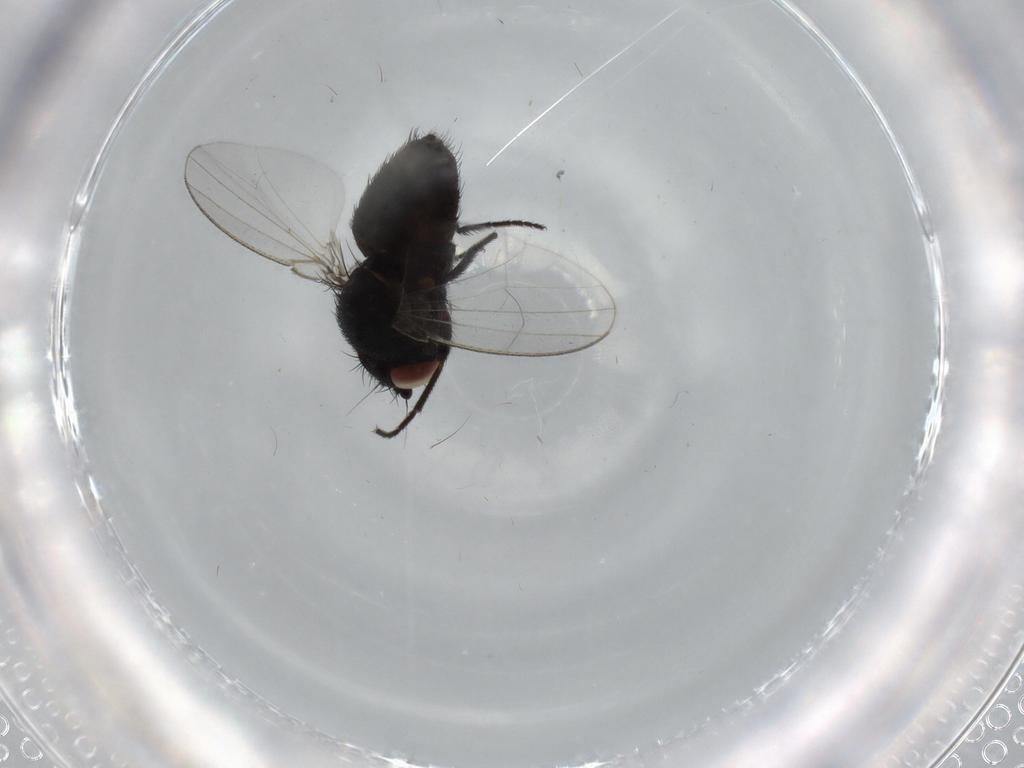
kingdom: Animalia
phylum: Arthropoda
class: Insecta
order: Diptera
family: Milichiidae
